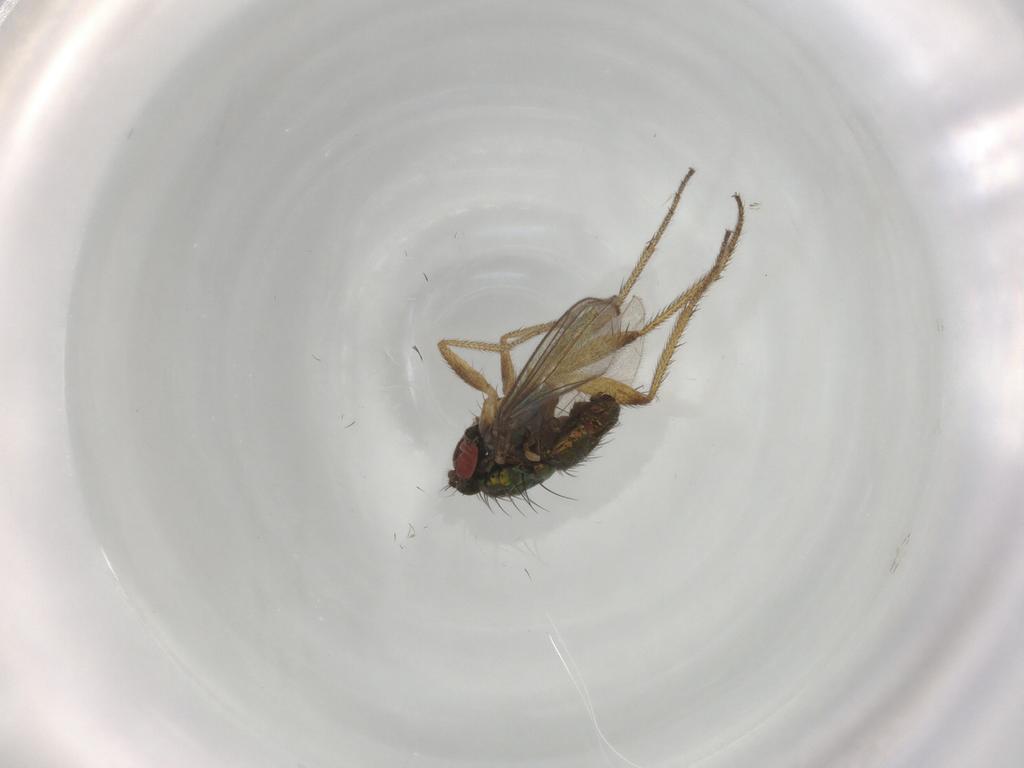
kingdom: Animalia
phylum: Arthropoda
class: Insecta
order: Diptera
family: Dolichopodidae
